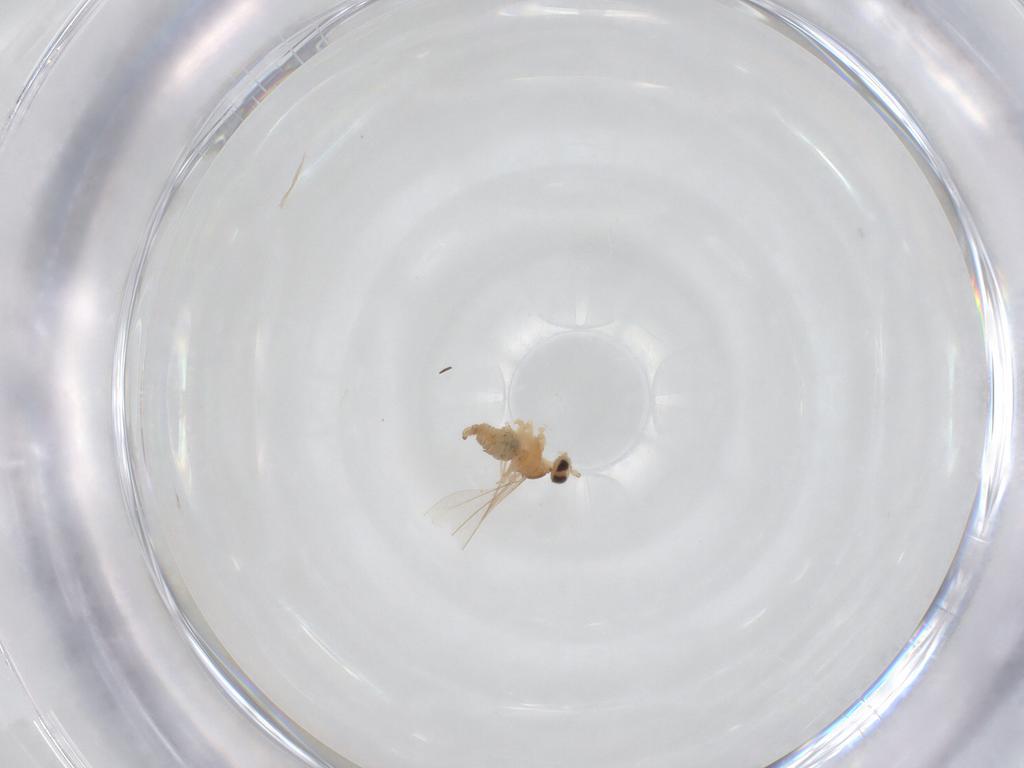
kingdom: Animalia
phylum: Arthropoda
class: Insecta
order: Diptera
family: Cecidomyiidae
